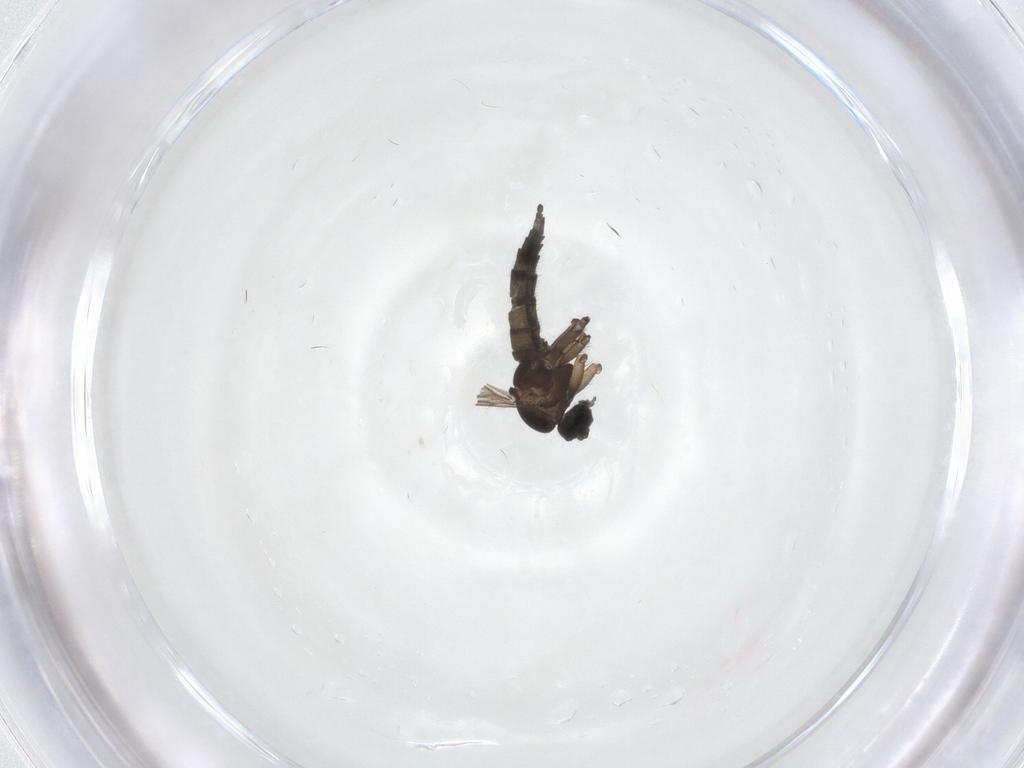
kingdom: Animalia
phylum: Arthropoda
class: Insecta
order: Diptera
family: Sciaridae
